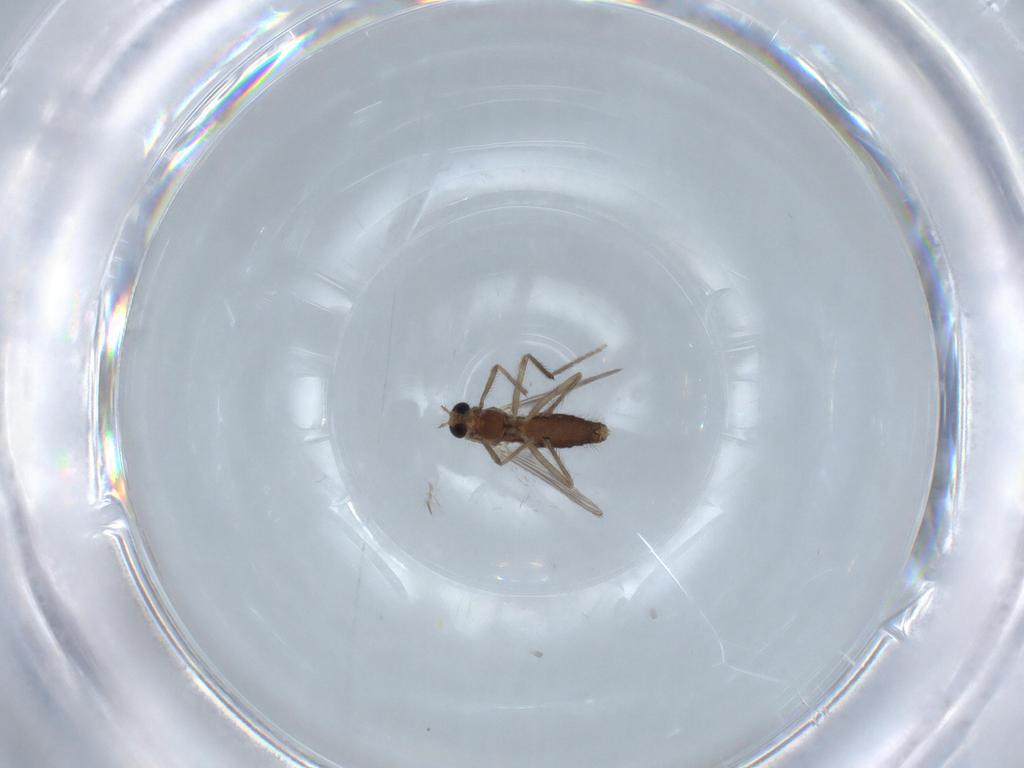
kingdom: Animalia
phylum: Arthropoda
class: Insecta
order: Diptera
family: Chironomidae
